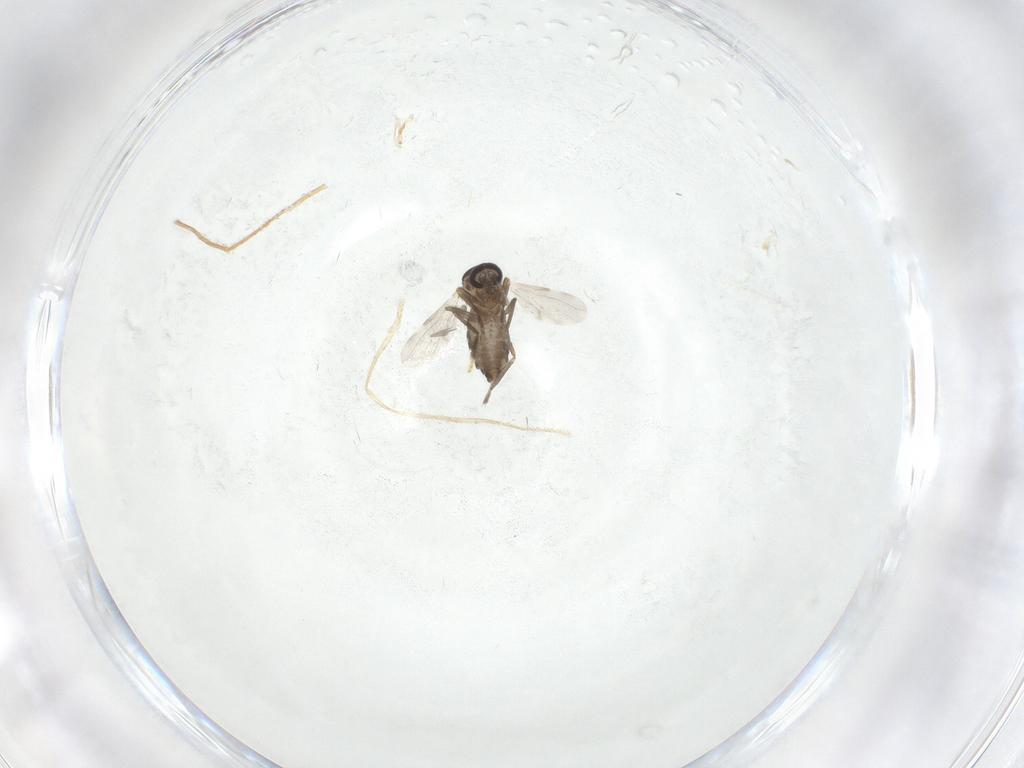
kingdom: Animalia
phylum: Arthropoda
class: Insecta
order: Diptera
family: Ceratopogonidae
